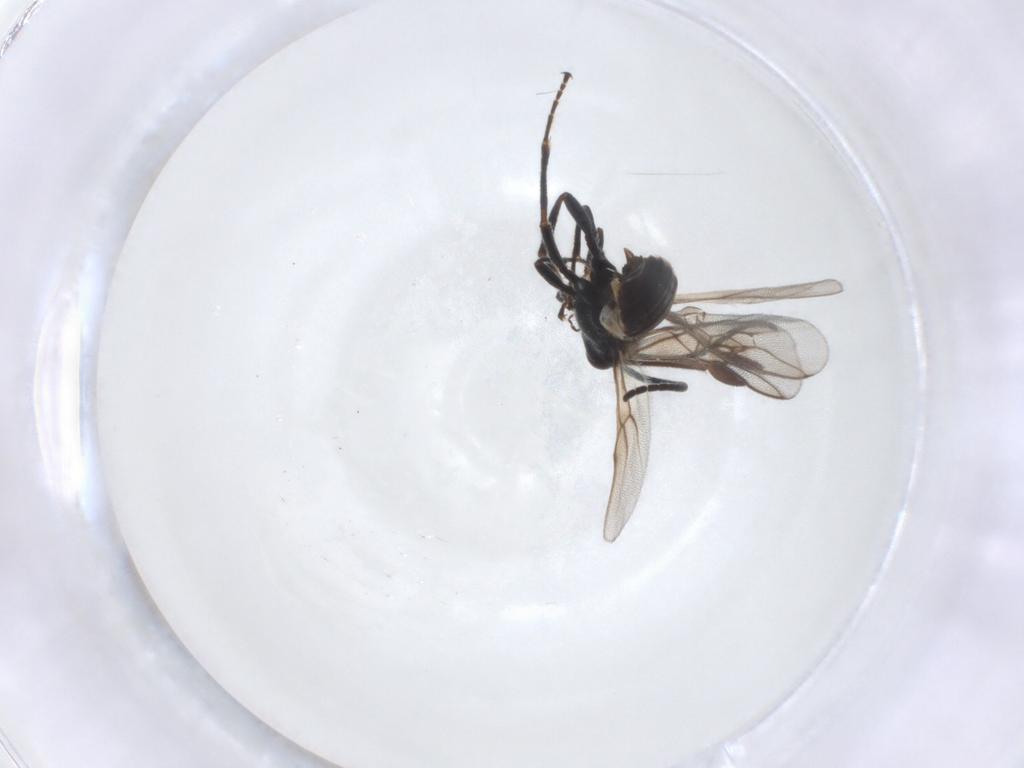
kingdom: Animalia
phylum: Arthropoda
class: Insecta
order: Hymenoptera
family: Braconidae
